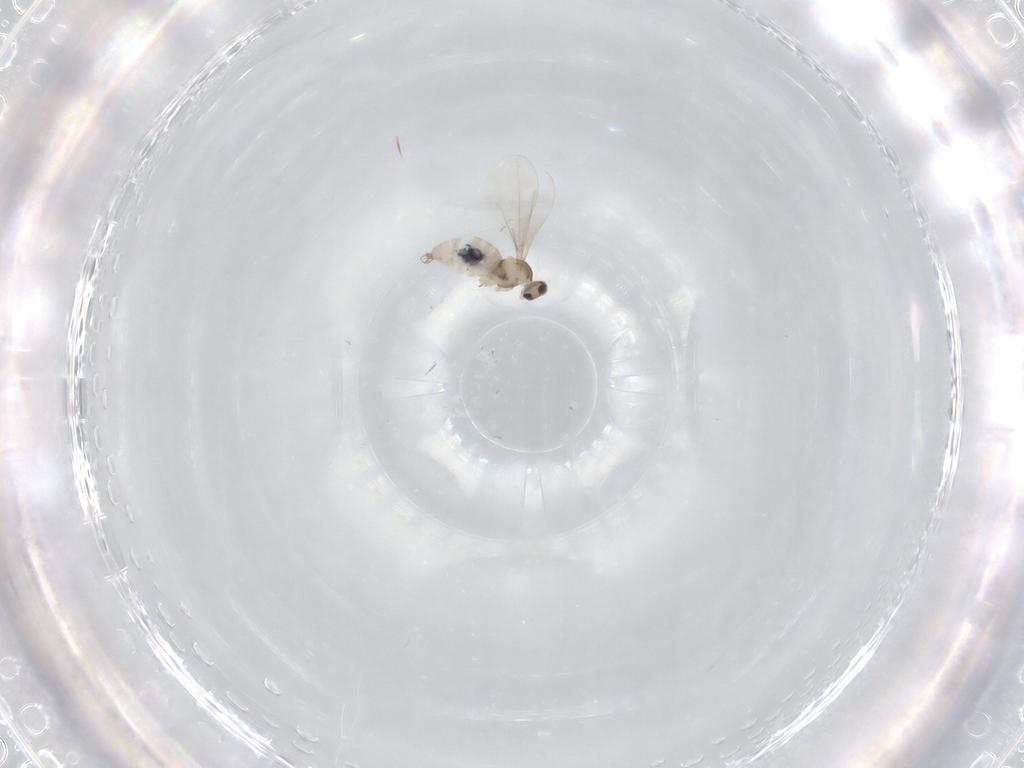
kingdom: Animalia
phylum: Arthropoda
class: Insecta
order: Diptera
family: Cecidomyiidae
